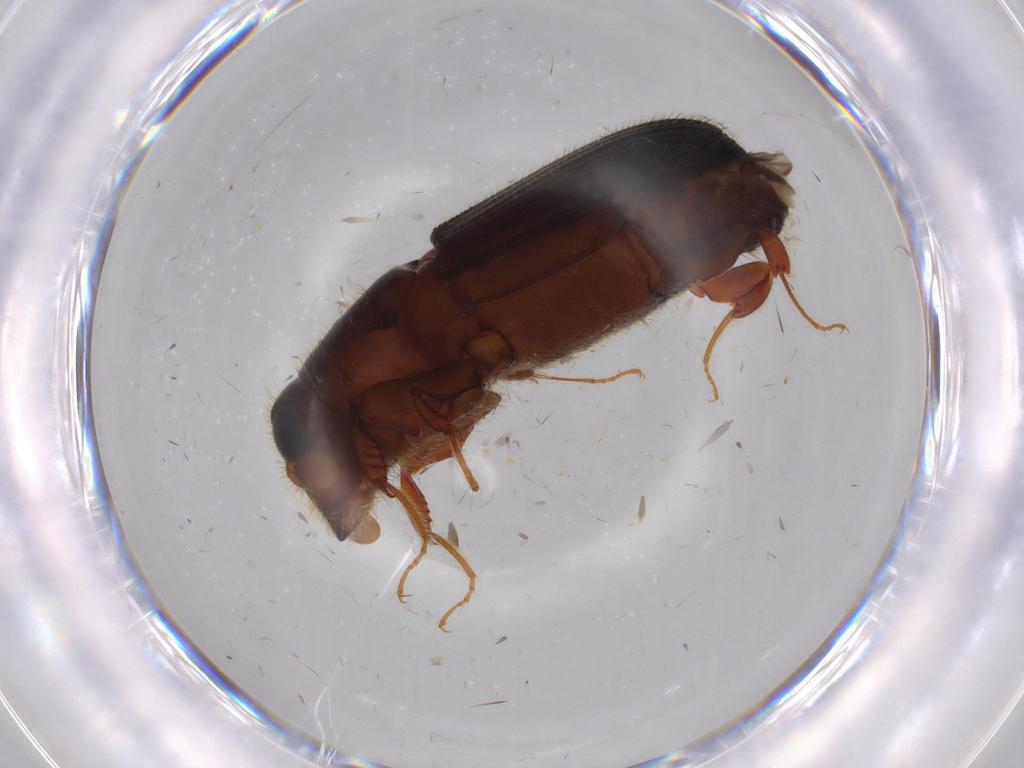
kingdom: Animalia
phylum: Arthropoda
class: Insecta
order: Coleoptera
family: Curculionidae
